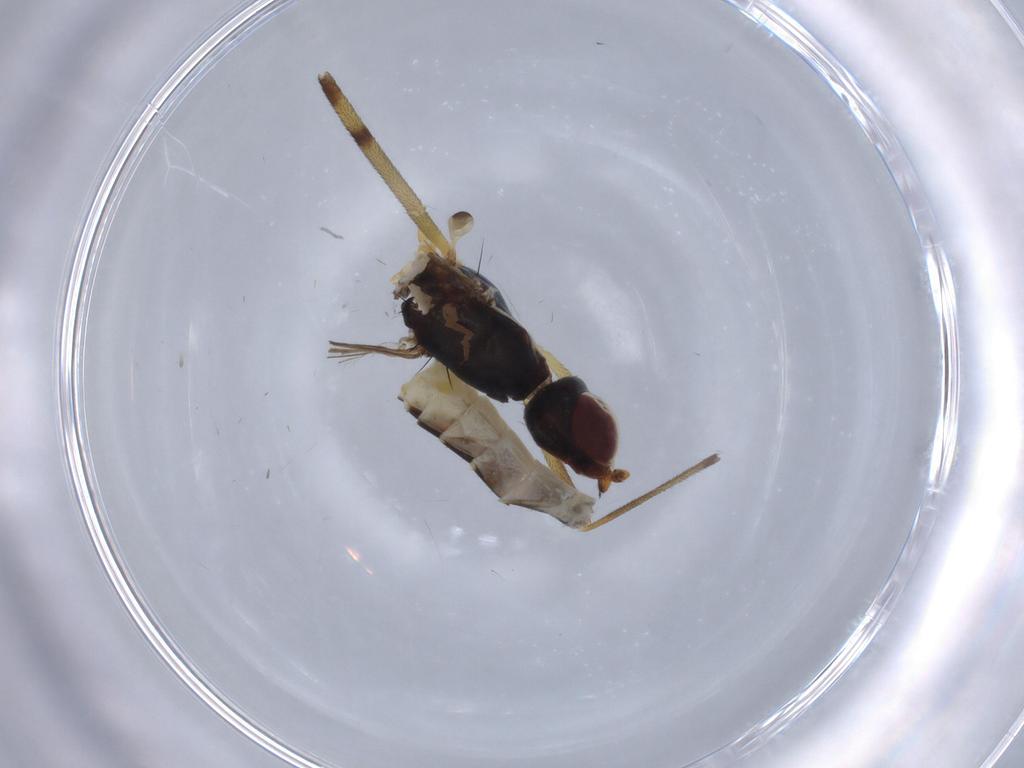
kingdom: Animalia
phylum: Arthropoda
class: Insecta
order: Diptera
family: Micropezidae
